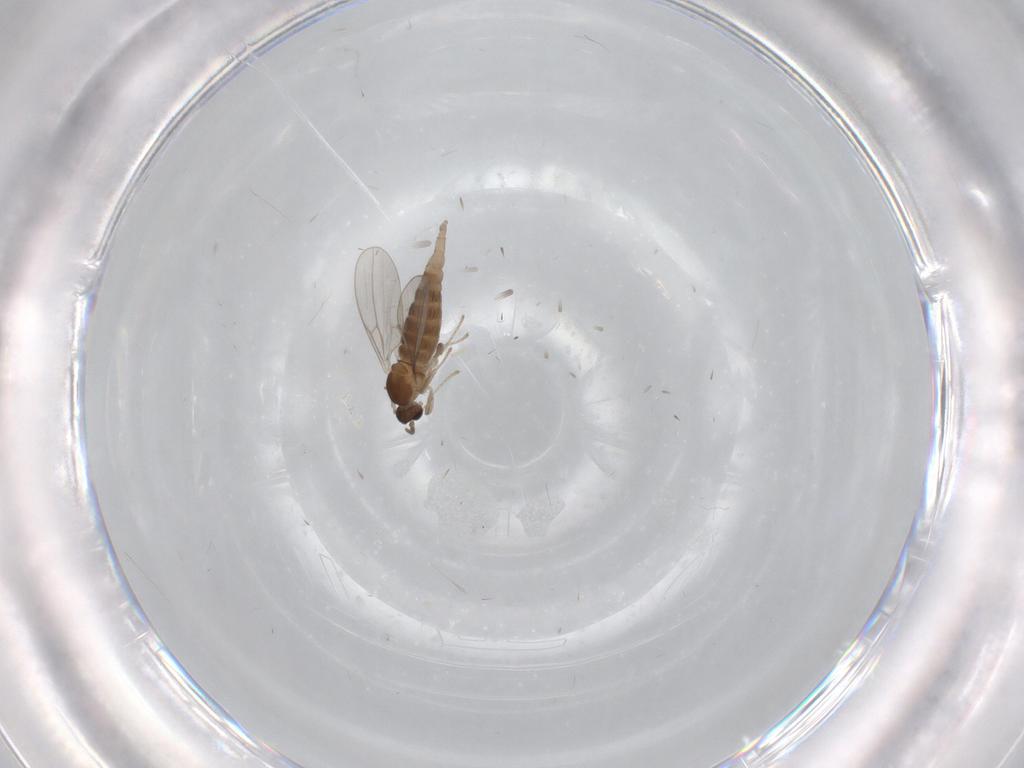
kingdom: Animalia
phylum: Arthropoda
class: Insecta
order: Diptera
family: Cecidomyiidae
